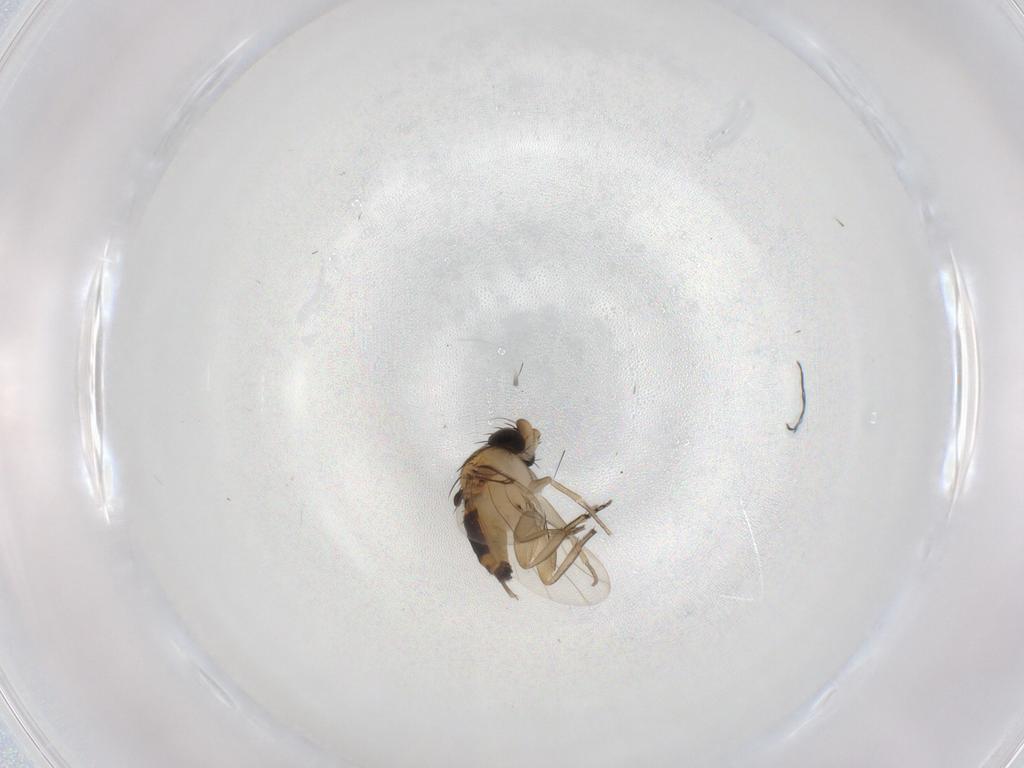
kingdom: Animalia
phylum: Arthropoda
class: Insecta
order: Diptera
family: Phoridae
